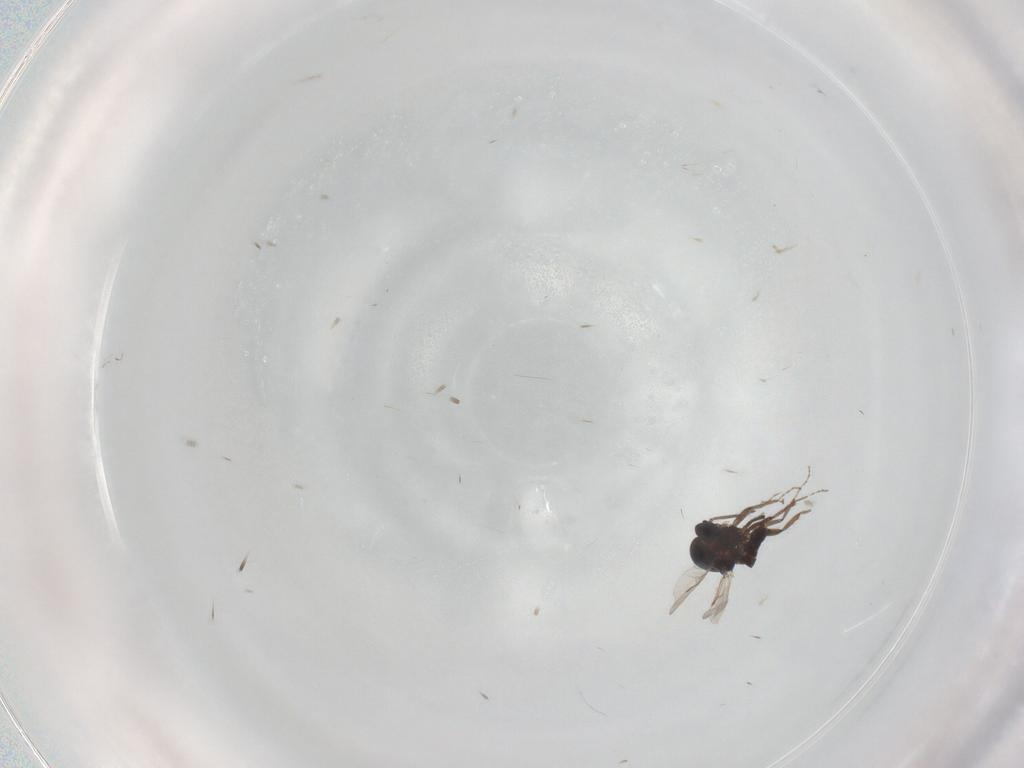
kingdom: Animalia
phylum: Arthropoda
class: Insecta
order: Diptera
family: Ceratopogonidae
